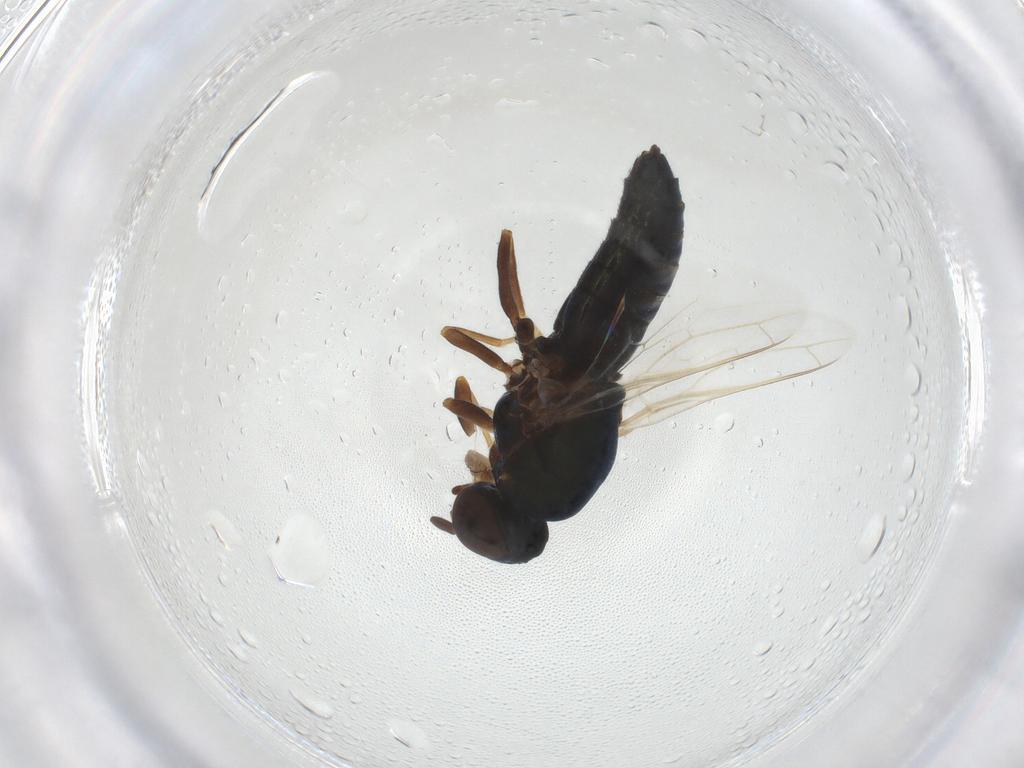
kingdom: Animalia
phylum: Arthropoda
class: Insecta
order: Diptera
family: Scenopinidae
